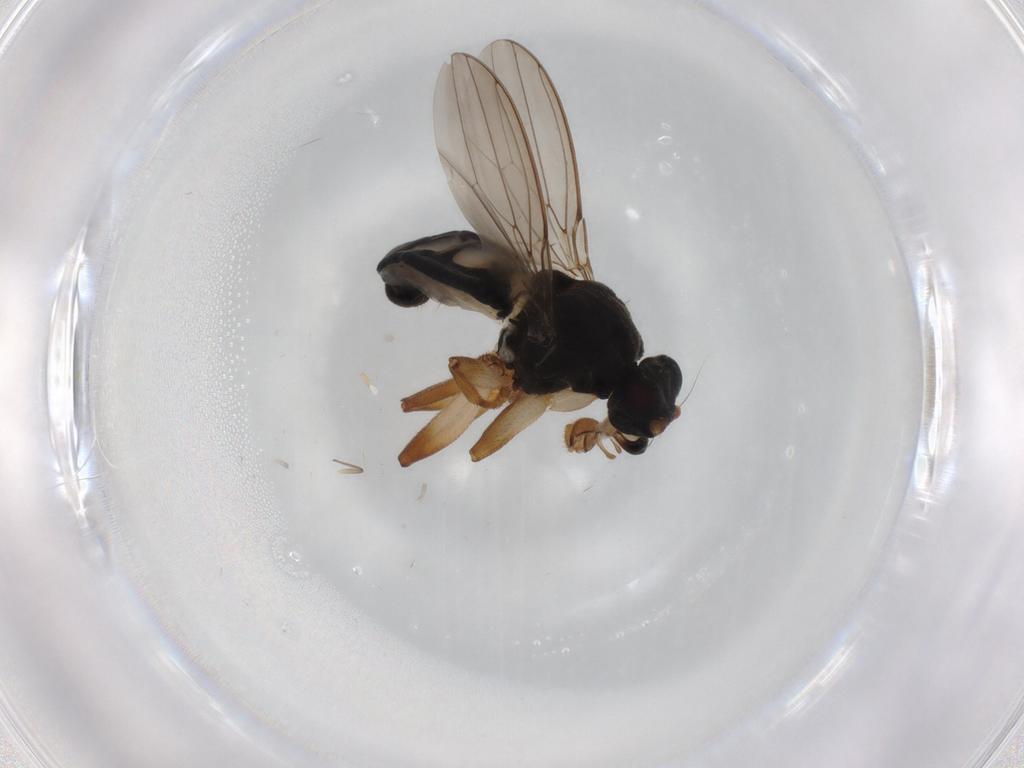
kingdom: Animalia
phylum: Arthropoda
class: Insecta
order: Diptera
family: Sphaeroceridae
